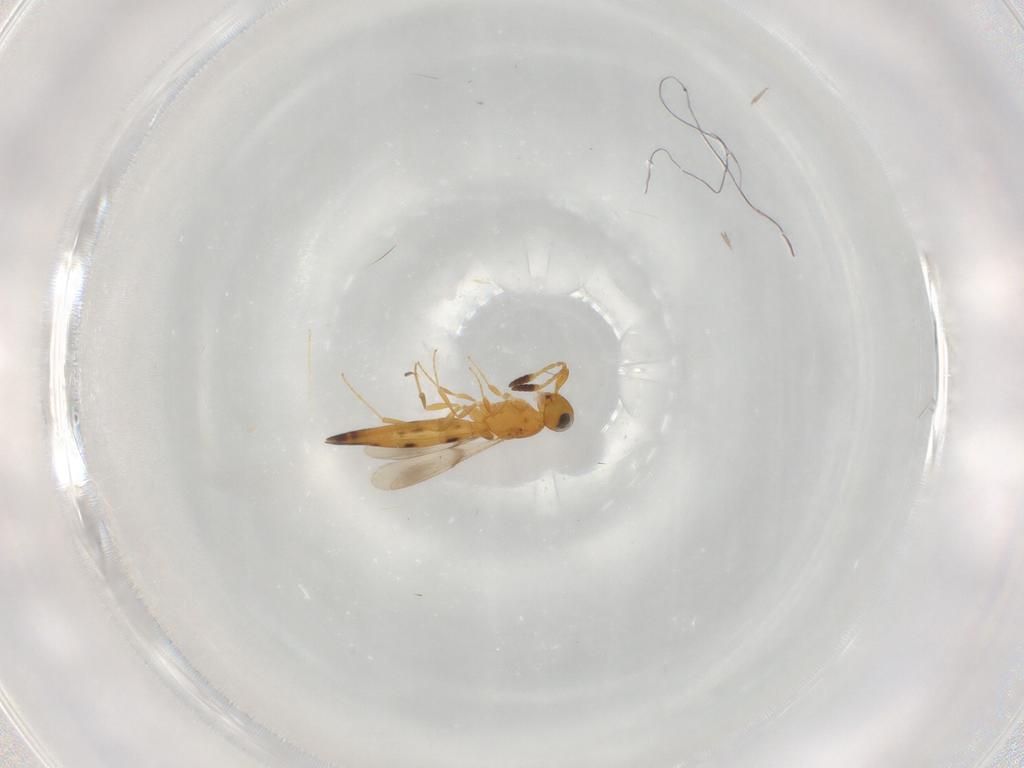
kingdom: Animalia
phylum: Arthropoda
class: Insecta
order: Hymenoptera
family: Scelionidae
